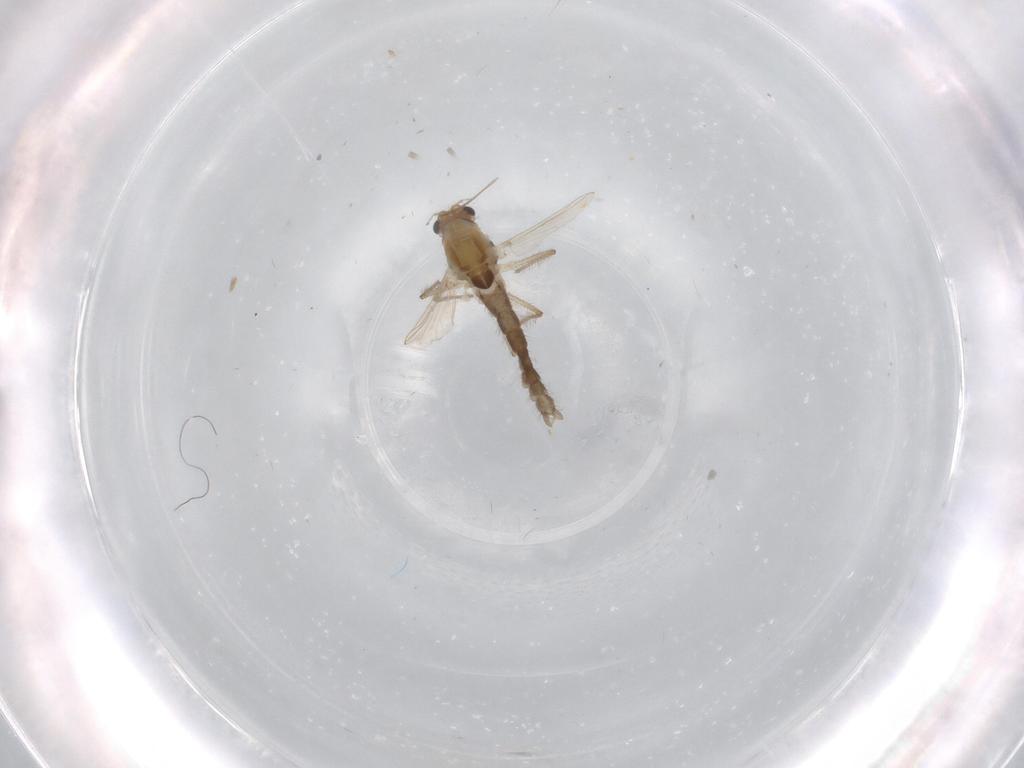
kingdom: Animalia
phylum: Arthropoda
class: Insecta
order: Diptera
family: Chironomidae
